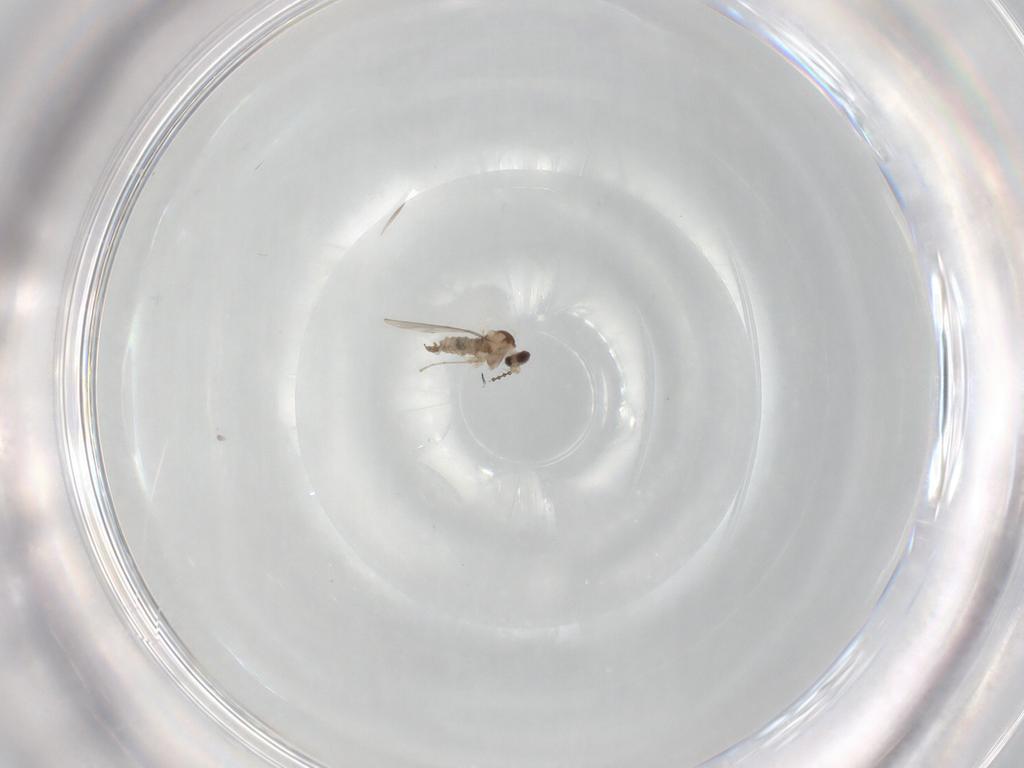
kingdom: Animalia
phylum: Arthropoda
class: Insecta
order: Diptera
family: Cecidomyiidae
